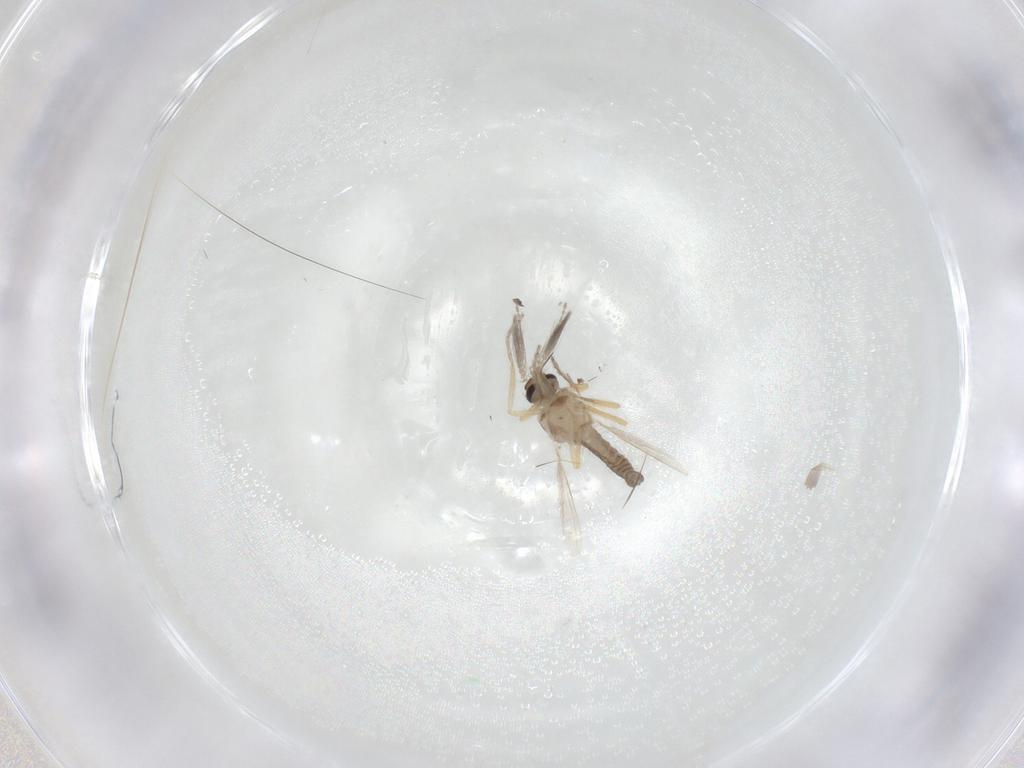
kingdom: Animalia
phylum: Arthropoda
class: Insecta
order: Diptera
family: Ceratopogonidae
